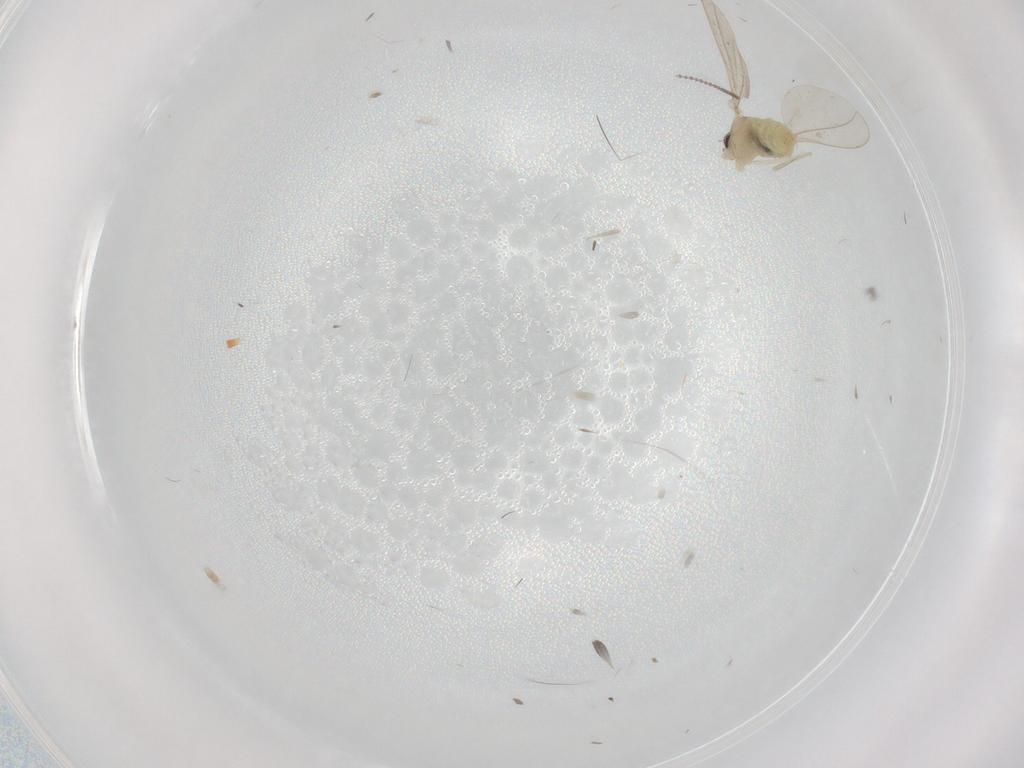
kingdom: Animalia
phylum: Arthropoda
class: Insecta
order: Diptera
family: Cecidomyiidae
